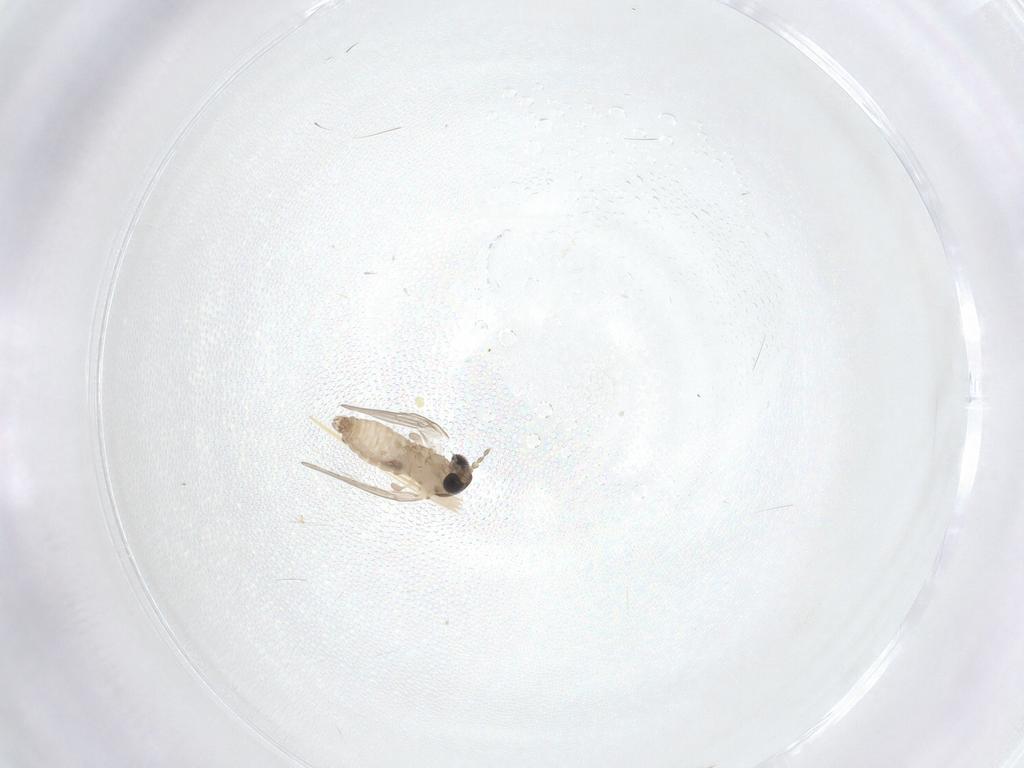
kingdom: Animalia
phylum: Arthropoda
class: Insecta
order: Diptera
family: Psychodidae
